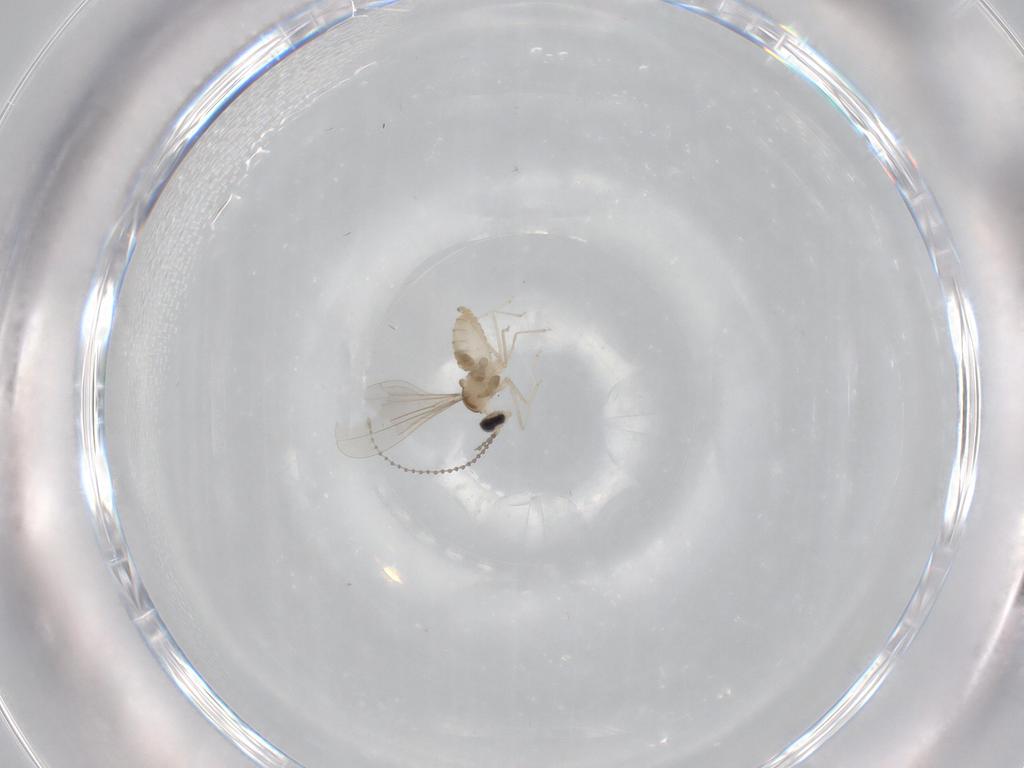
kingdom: Animalia
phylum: Arthropoda
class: Insecta
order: Diptera
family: Cecidomyiidae
